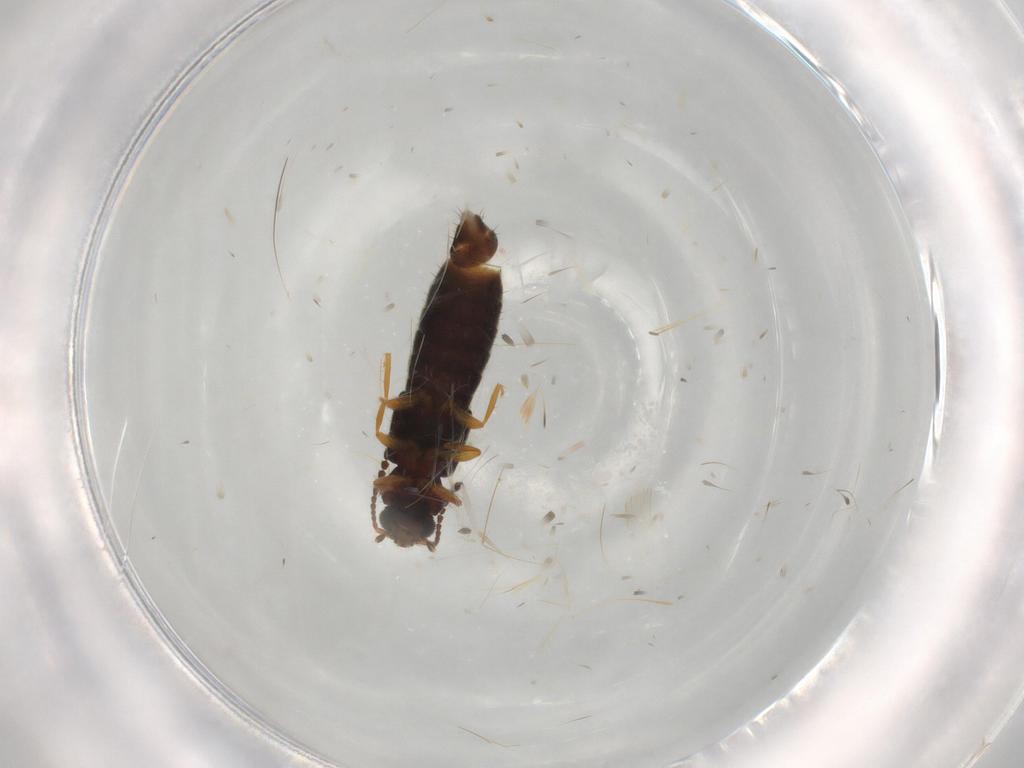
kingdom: Animalia
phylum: Arthropoda
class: Insecta
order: Coleoptera
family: Staphylinidae
